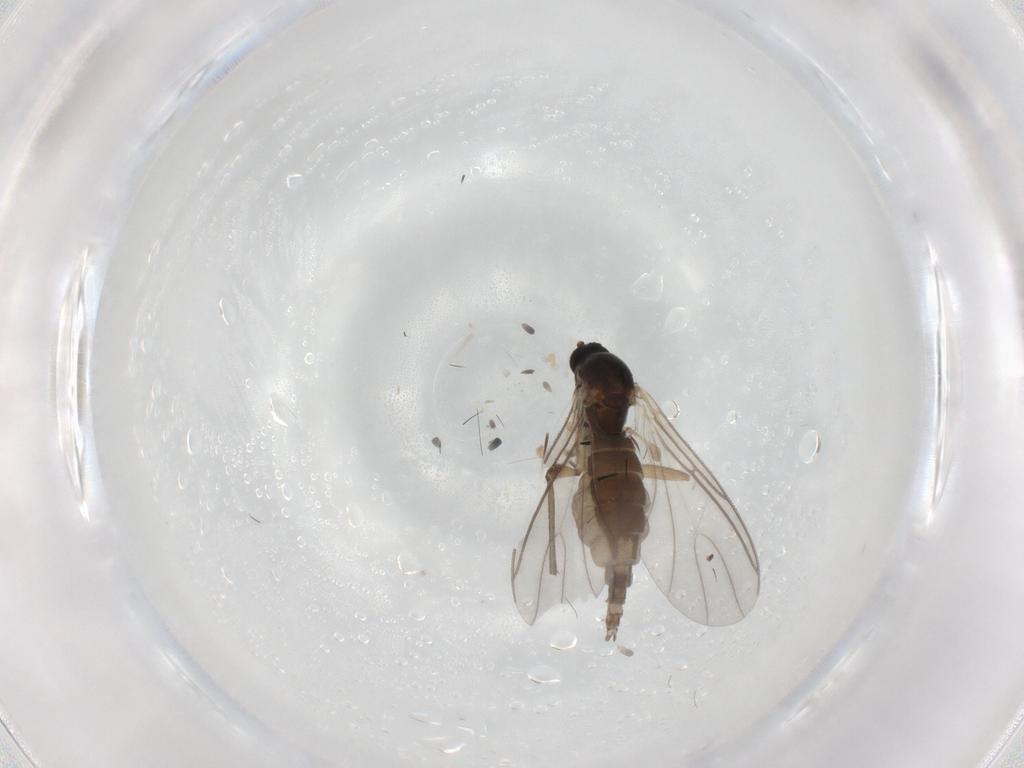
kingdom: Animalia
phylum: Arthropoda
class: Insecta
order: Diptera
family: Sciaridae
